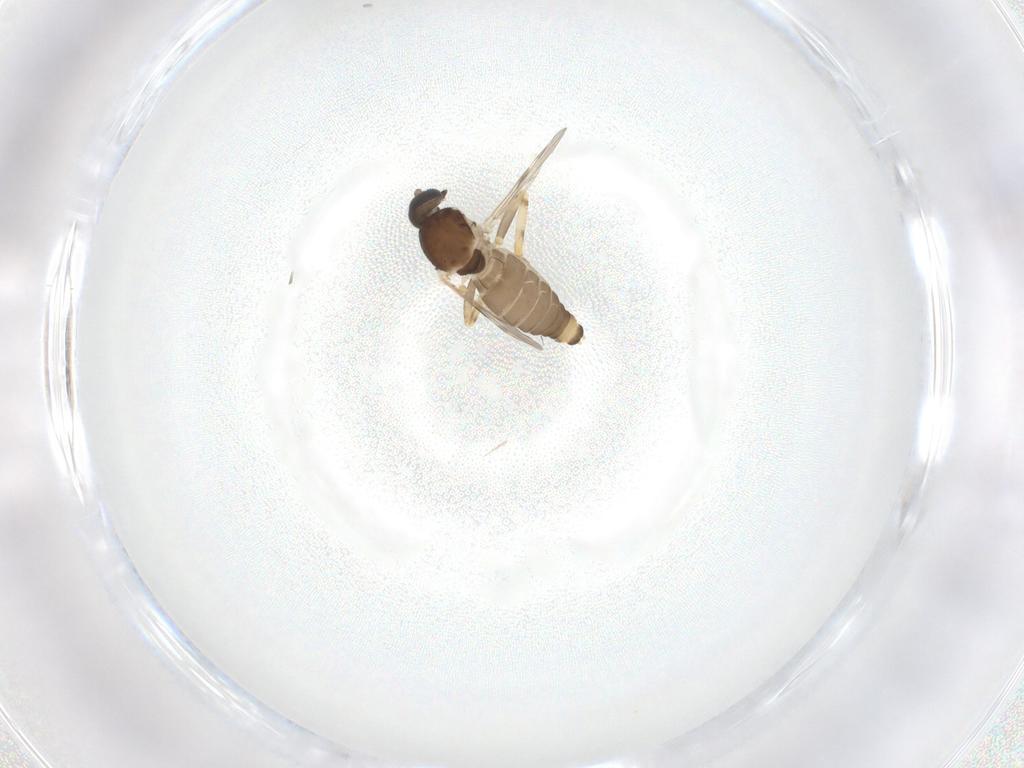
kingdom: Animalia
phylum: Arthropoda
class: Insecta
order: Diptera
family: Ceratopogonidae
